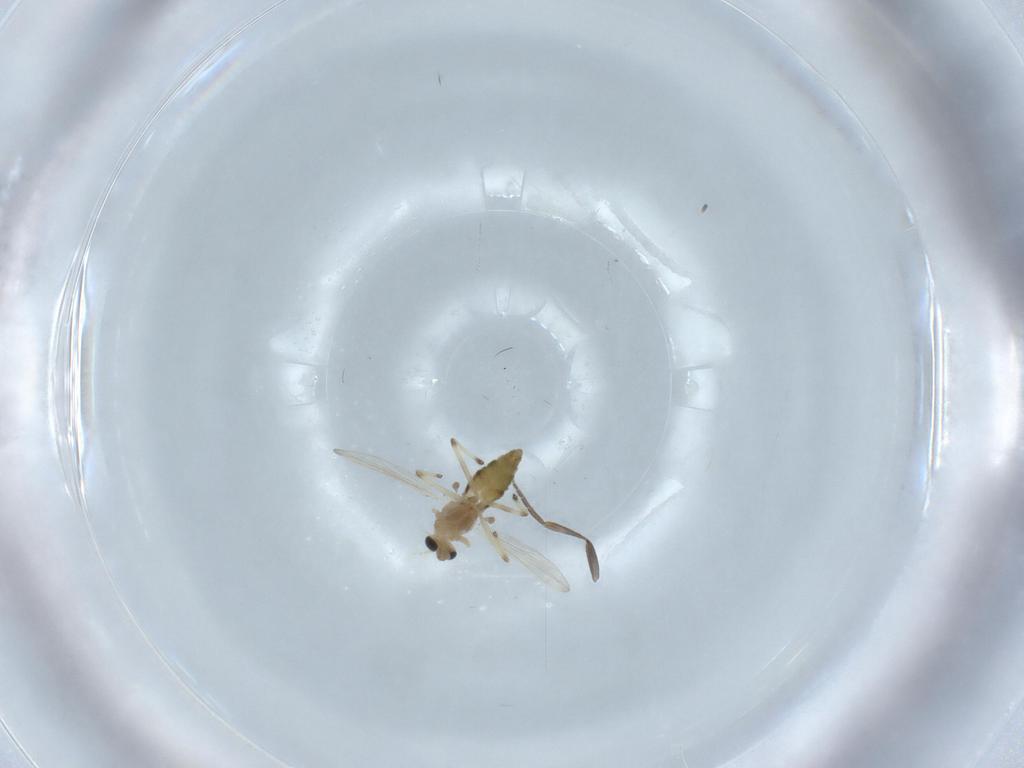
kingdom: Animalia
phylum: Arthropoda
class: Insecta
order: Diptera
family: Chironomidae
